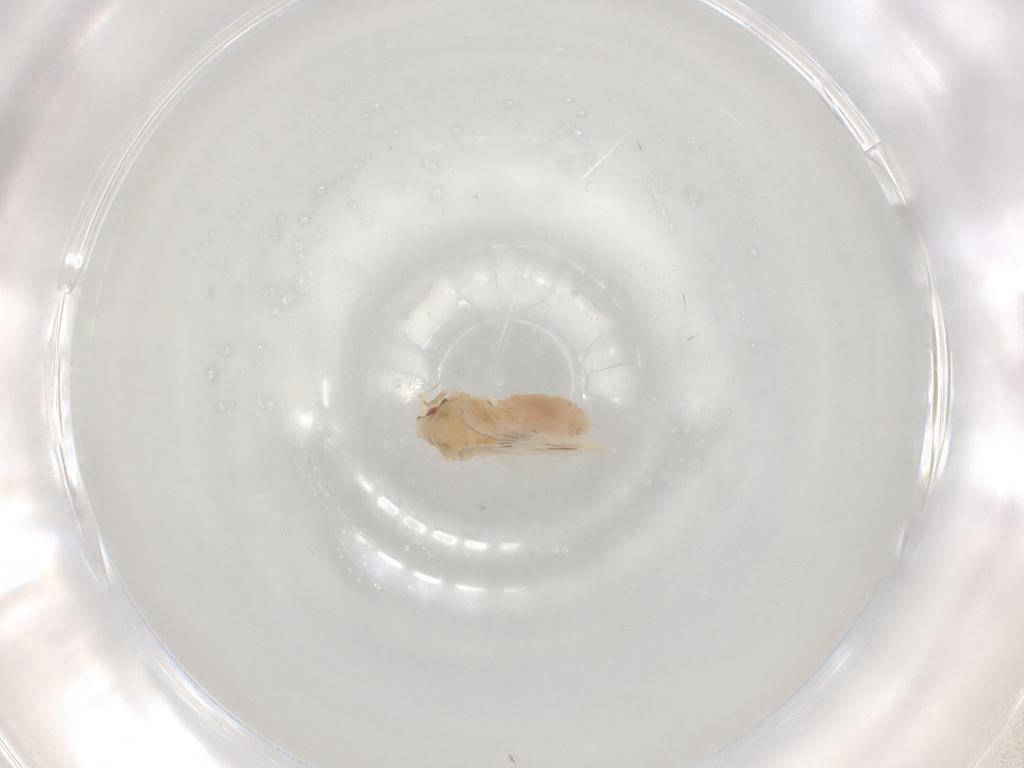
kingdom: Animalia
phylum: Arthropoda
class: Insecta
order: Hemiptera
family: Aleyrodidae
